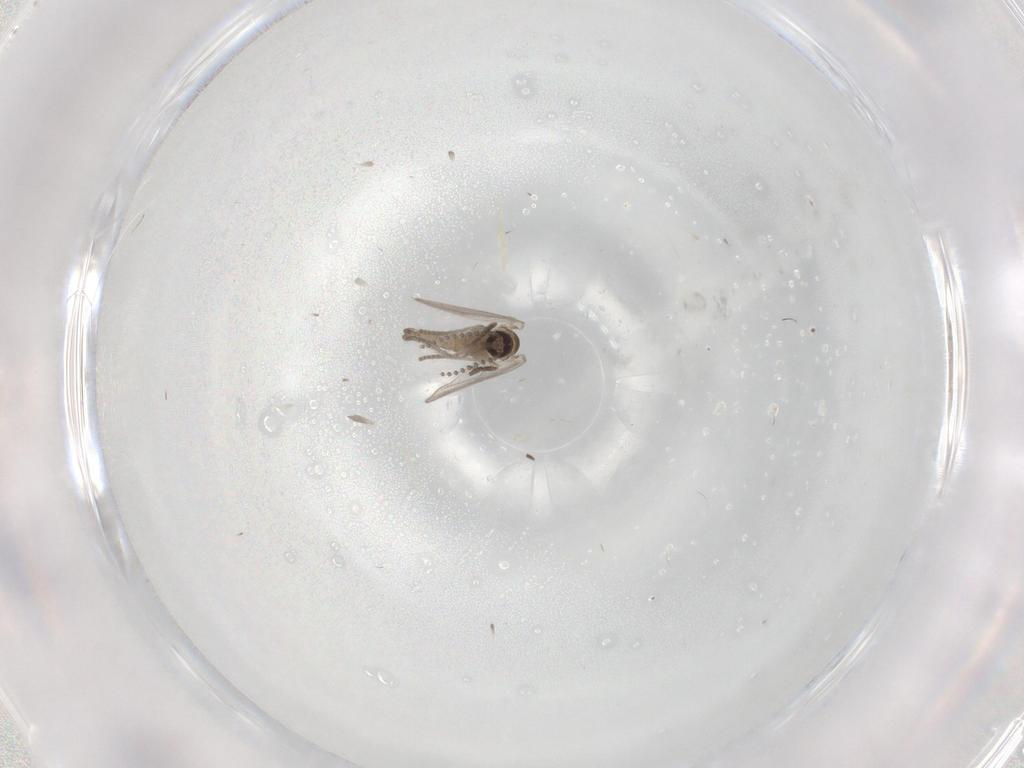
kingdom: Animalia
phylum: Arthropoda
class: Insecta
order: Diptera
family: Psychodidae
